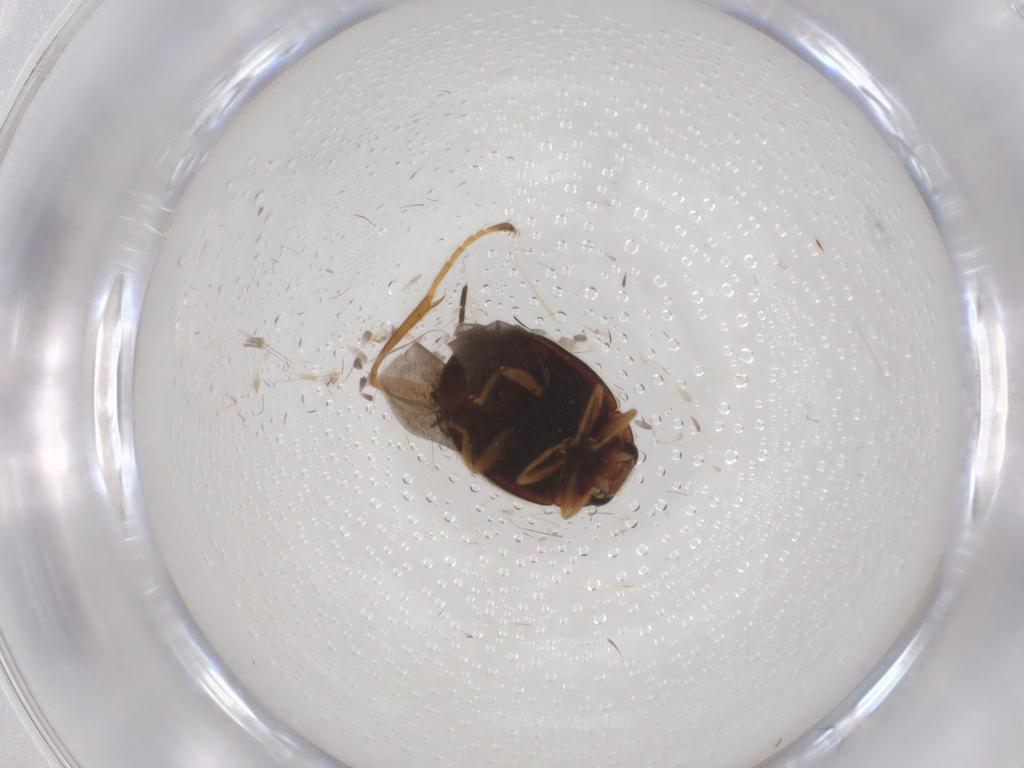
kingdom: Animalia
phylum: Arthropoda
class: Insecta
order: Coleoptera
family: Coccinellidae
